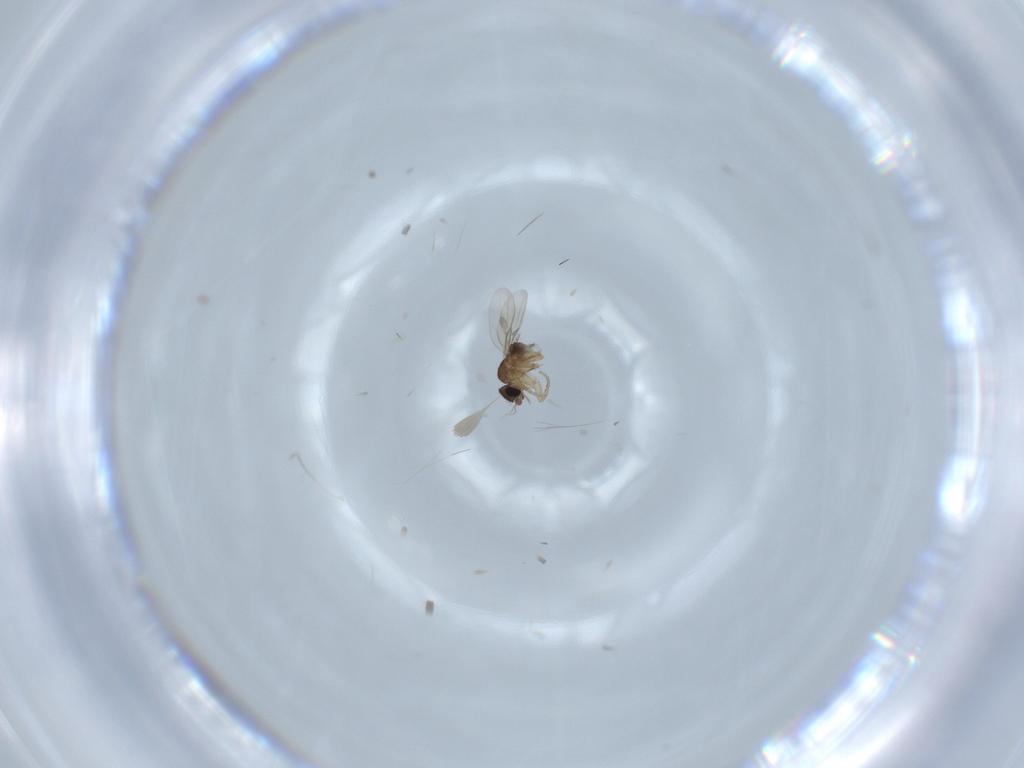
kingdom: Animalia
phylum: Arthropoda
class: Insecta
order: Diptera
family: Phoridae
